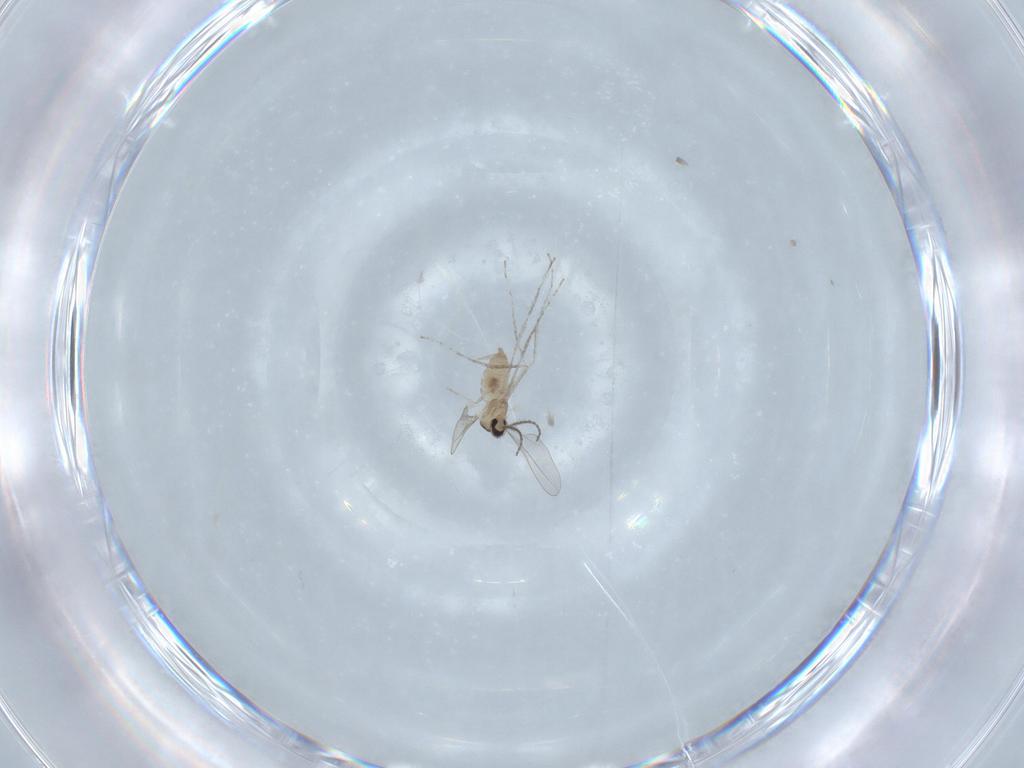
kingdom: Animalia
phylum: Arthropoda
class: Insecta
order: Diptera
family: Cecidomyiidae
